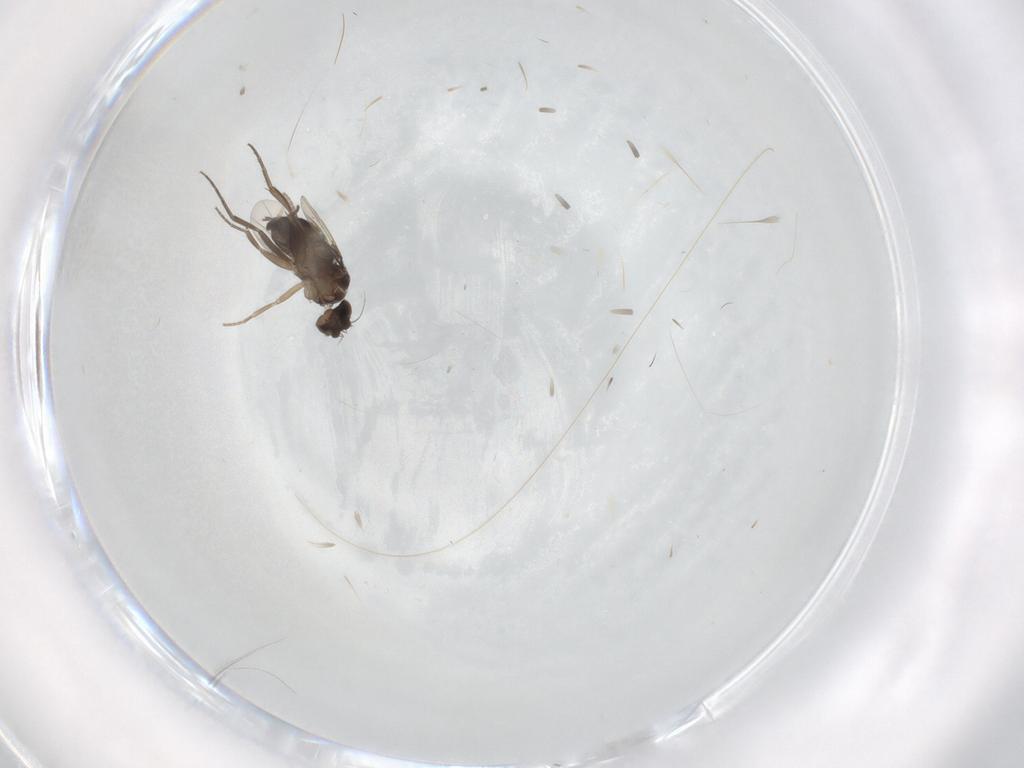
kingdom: Animalia
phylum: Arthropoda
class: Insecta
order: Diptera
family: Phoridae
